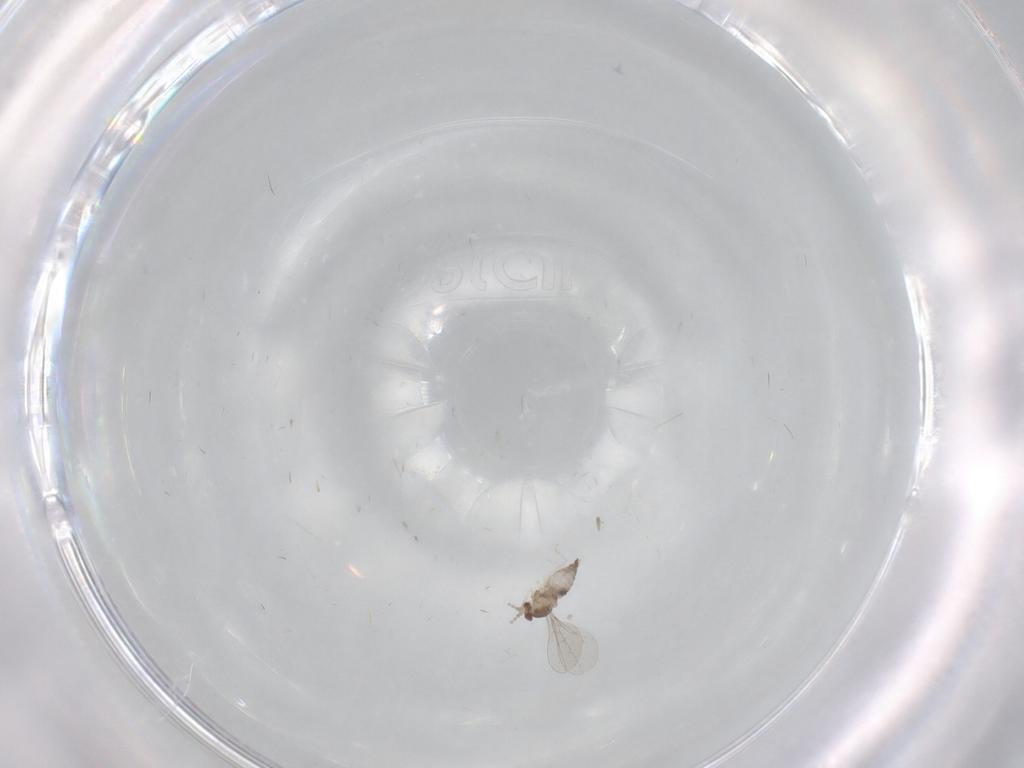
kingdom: Animalia
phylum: Arthropoda
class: Insecta
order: Diptera
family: Cecidomyiidae
